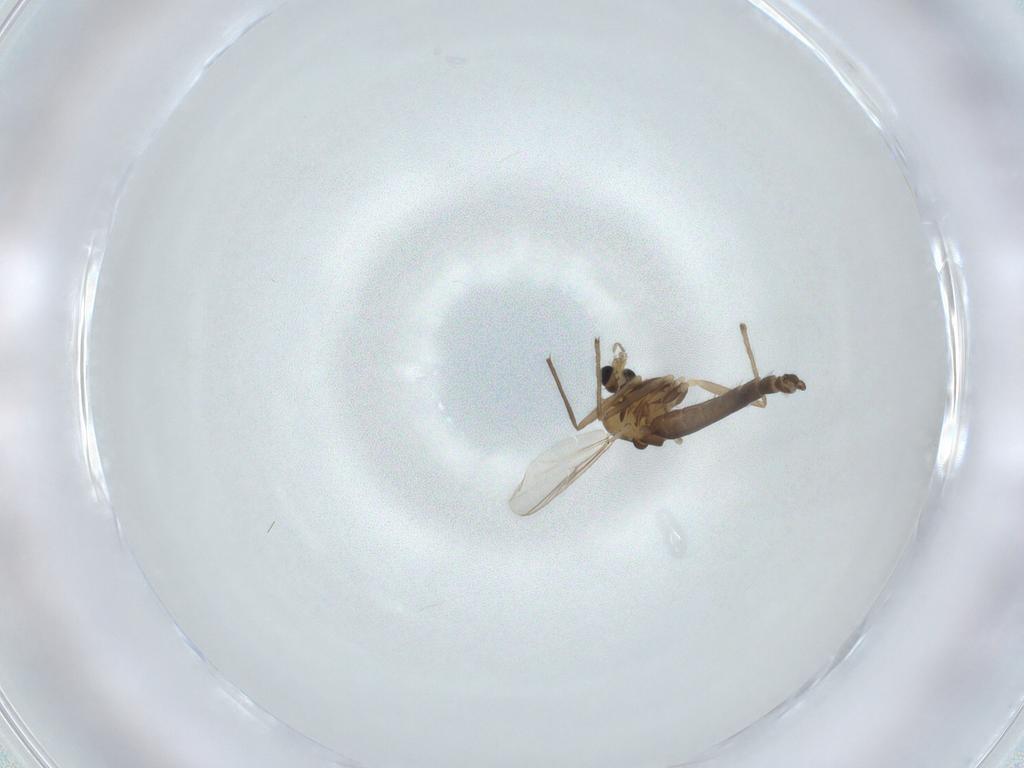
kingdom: Animalia
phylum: Arthropoda
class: Insecta
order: Diptera
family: Chironomidae
